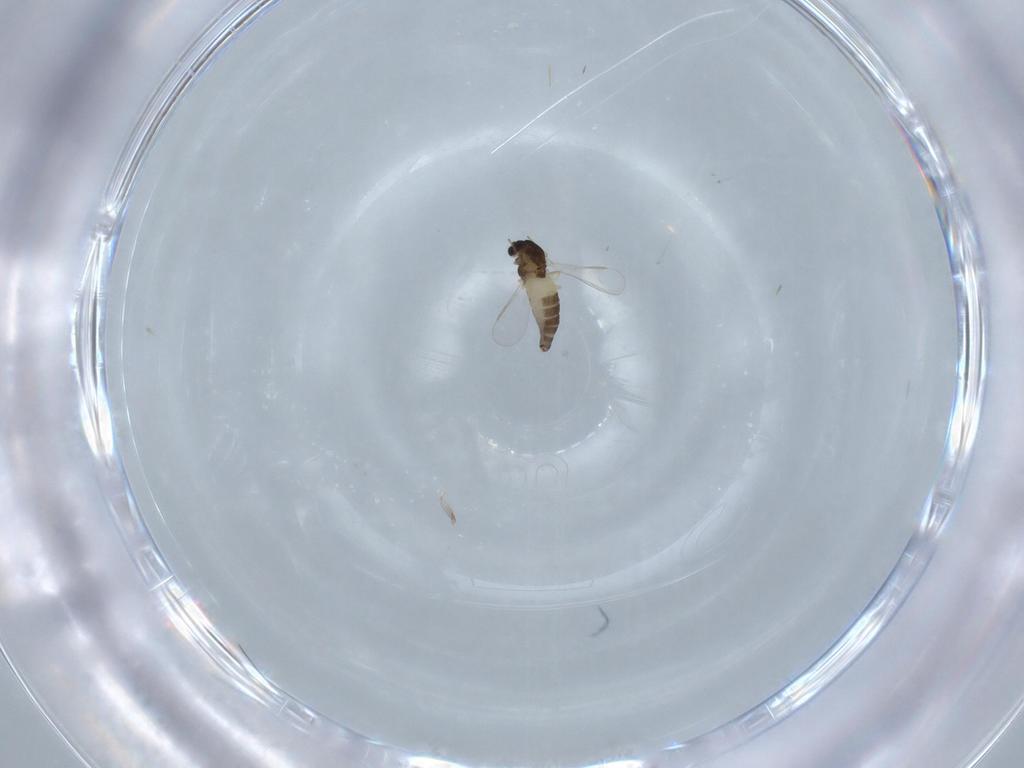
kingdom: Animalia
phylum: Arthropoda
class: Insecta
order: Diptera
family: Chironomidae
